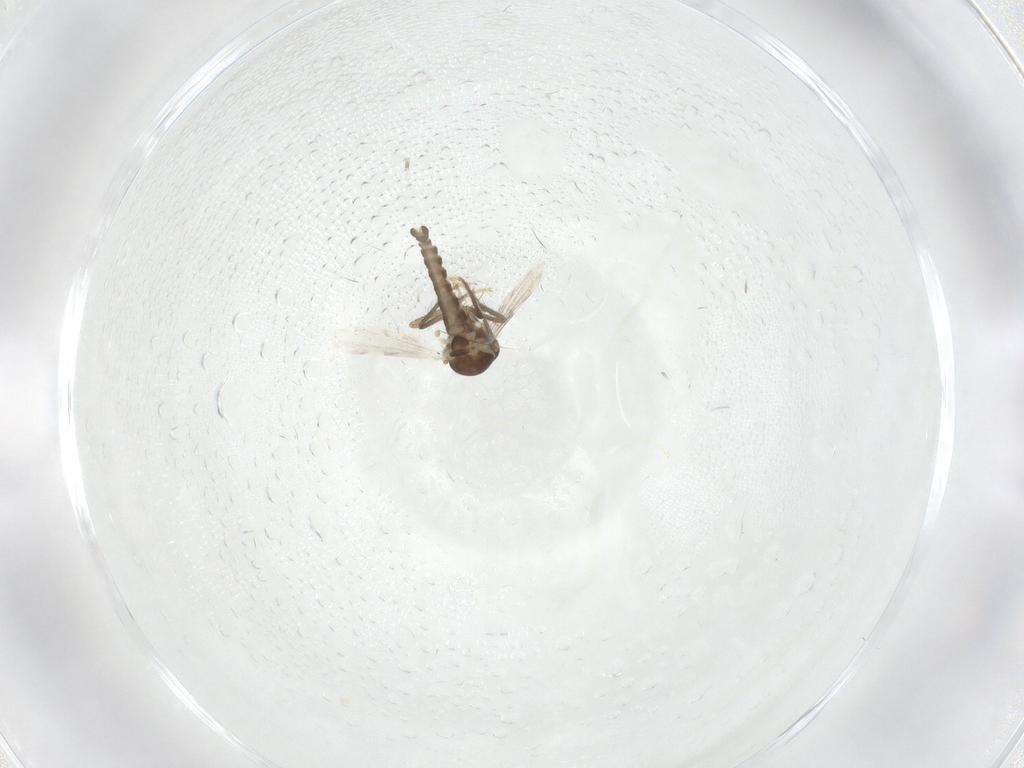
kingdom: Animalia
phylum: Arthropoda
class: Insecta
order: Diptera
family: Ceratopogonidae
